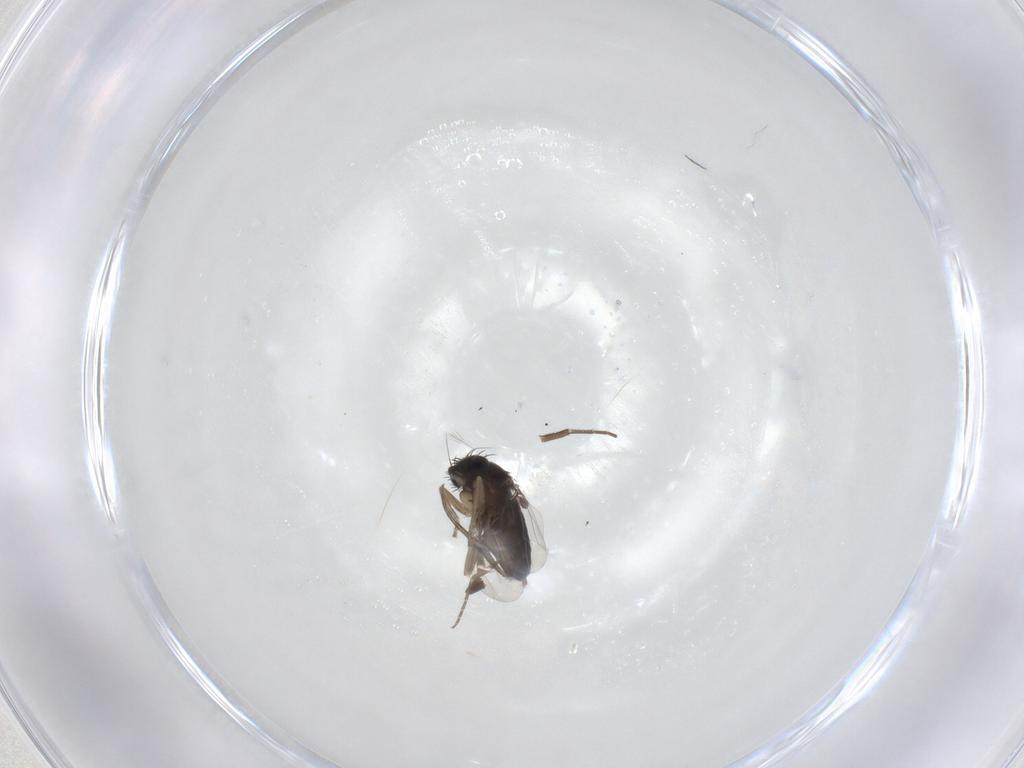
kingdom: Animalia
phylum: Arthropoda
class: Insecta
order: Diptera
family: Phoridae
